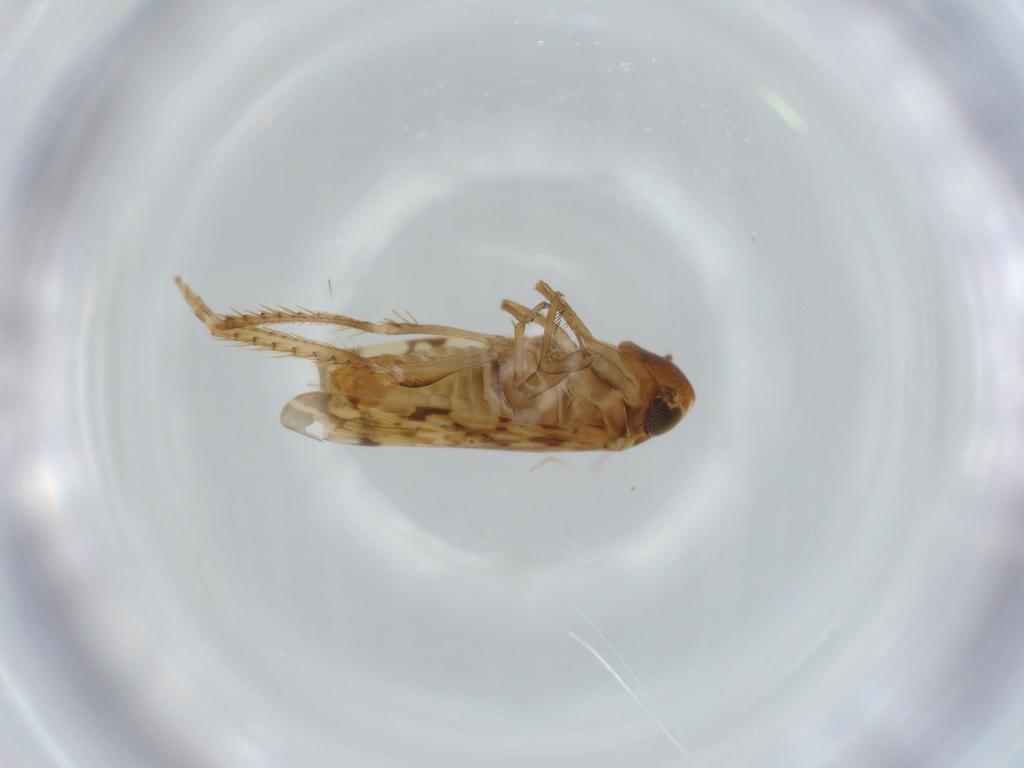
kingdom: Animalia
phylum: Arthropoda
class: Insecta
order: Hemiptera
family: Cicadellidae
